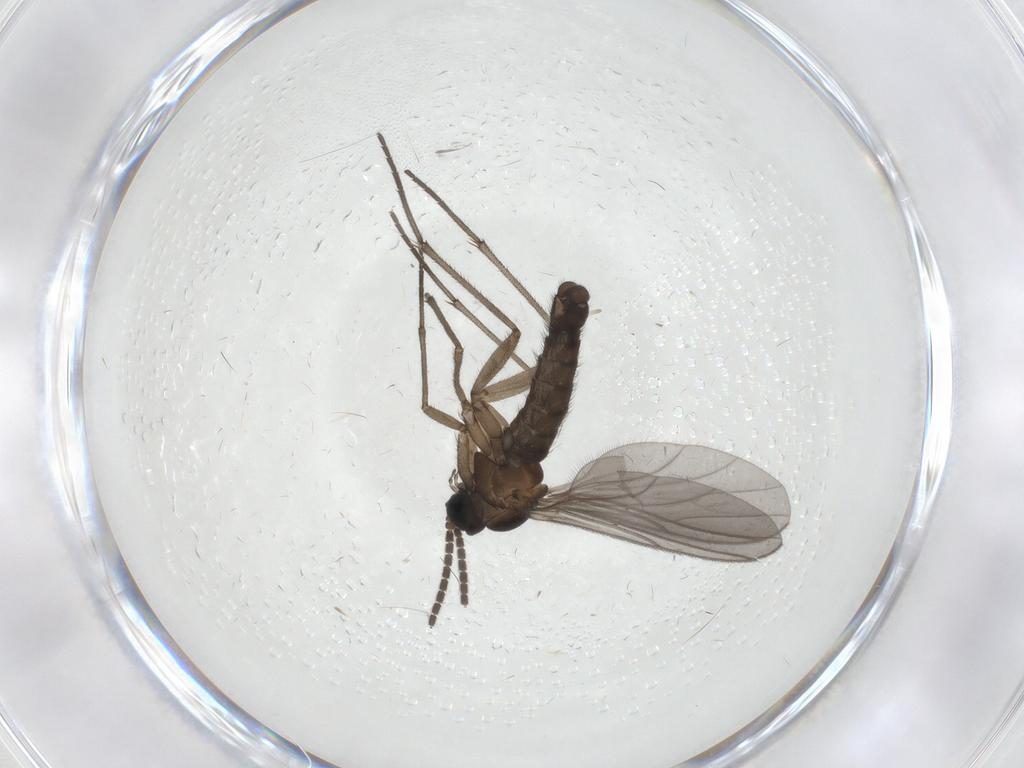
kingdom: Animalia
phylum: Arthropoda
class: Insecta
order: Diptera
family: Sciaridae
